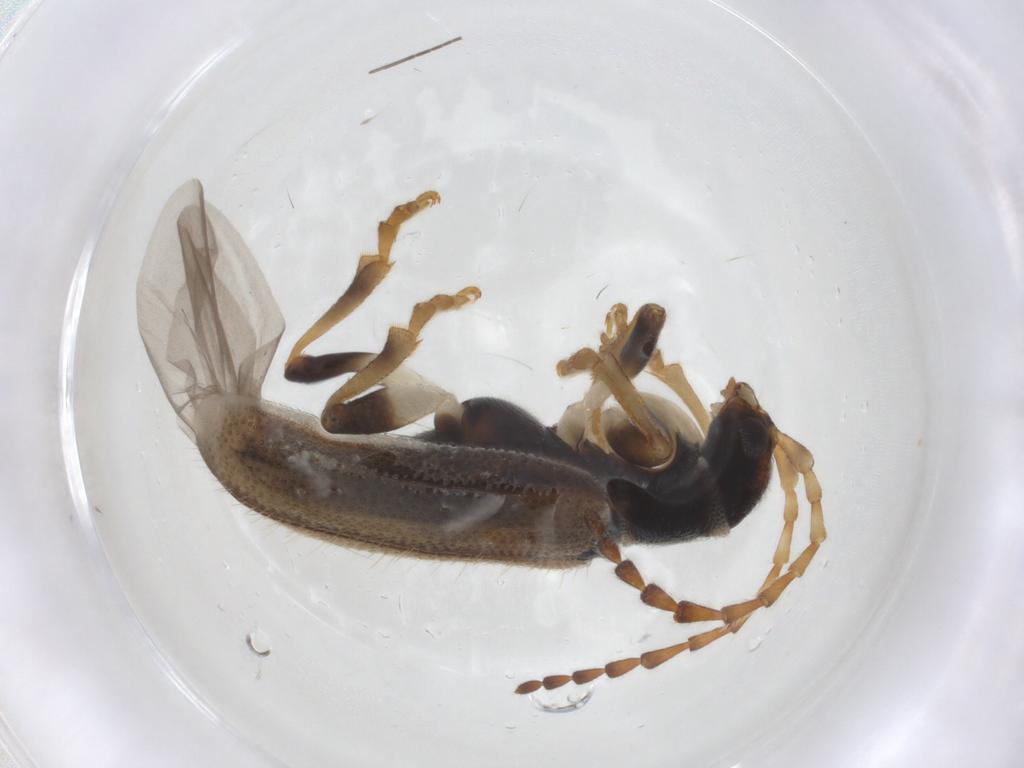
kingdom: Animalia
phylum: Arthropoda
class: Insecta
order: Coleoptera
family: Chrysomelidae
